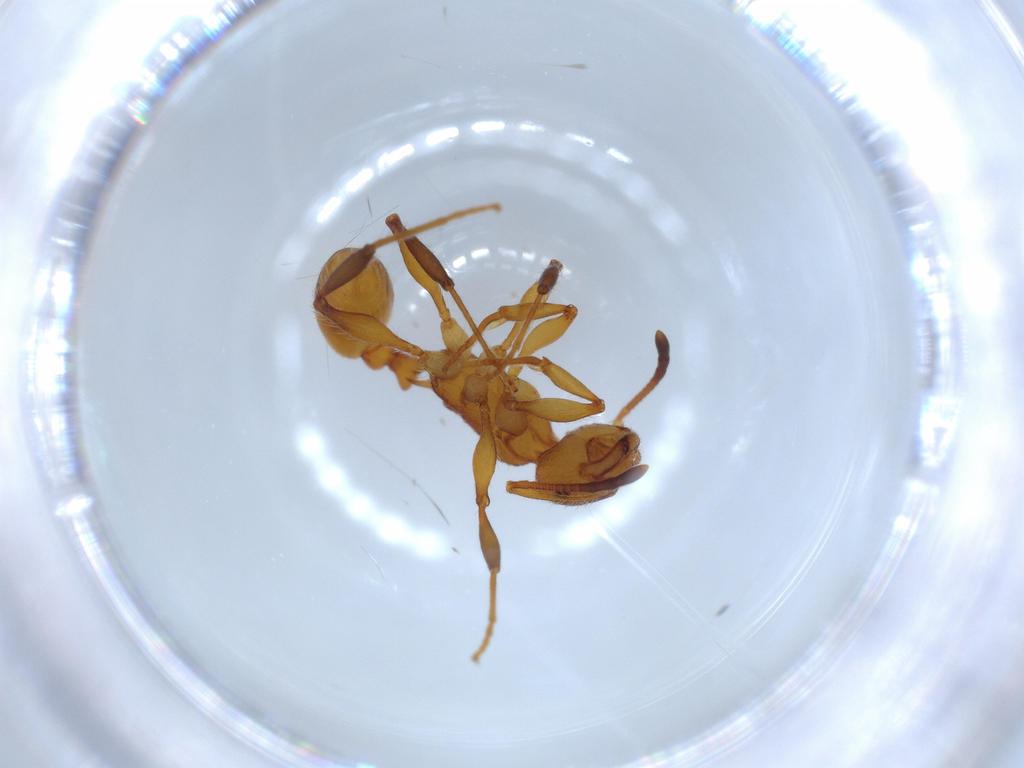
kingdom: Animalia
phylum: Arthropoda
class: Insecta
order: Hymenoptera
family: Formicidae
